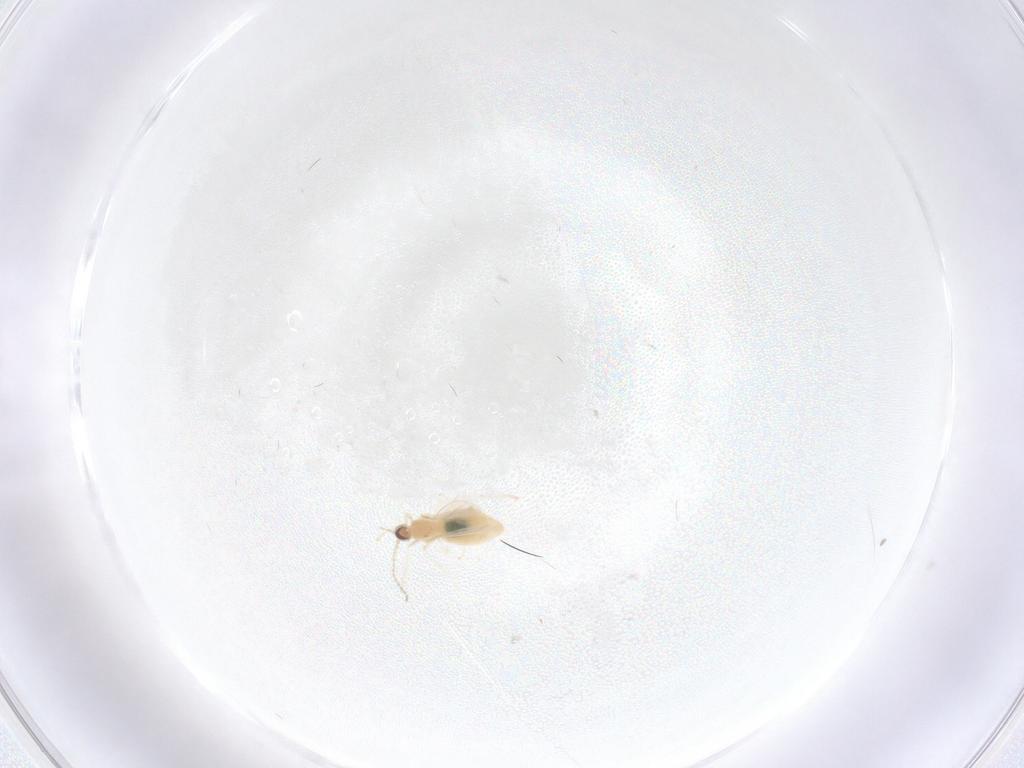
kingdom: Animalia
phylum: Arthropoda
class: Insecta
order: Diptera
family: Cecidomyiidae
